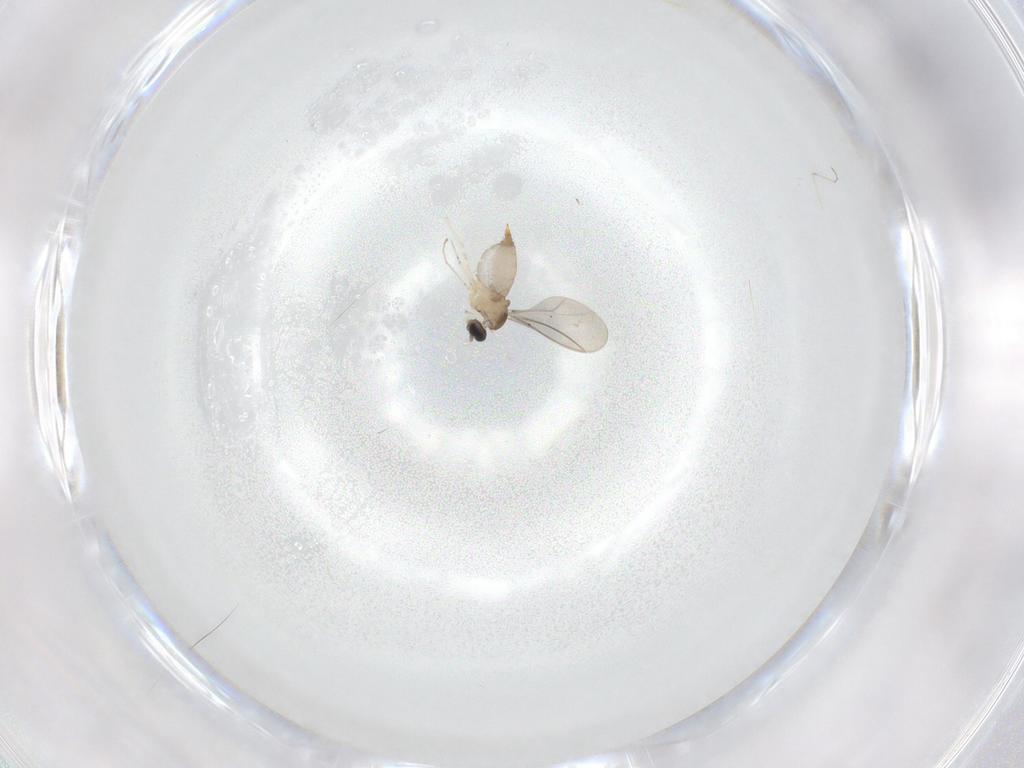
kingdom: Animalia
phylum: Arthropoda
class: Insecta
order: Diptera
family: Cecidomyiidae
